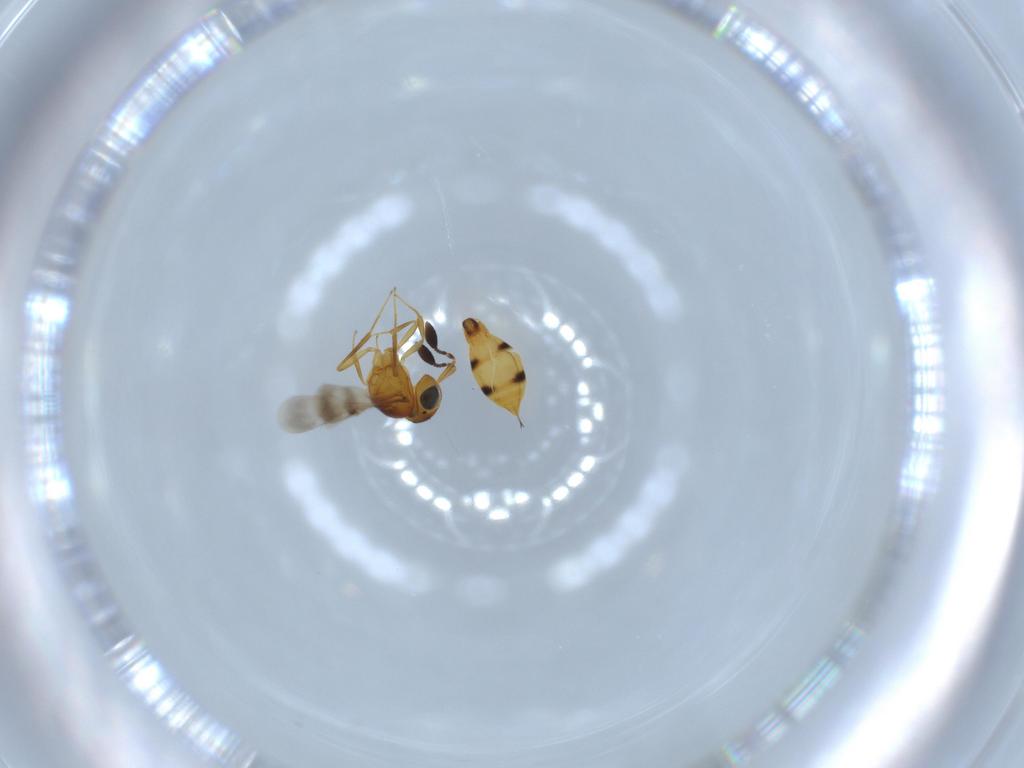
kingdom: Animalia
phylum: Arthropoda
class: Insecta
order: Hymenoptera
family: Scelionidae
